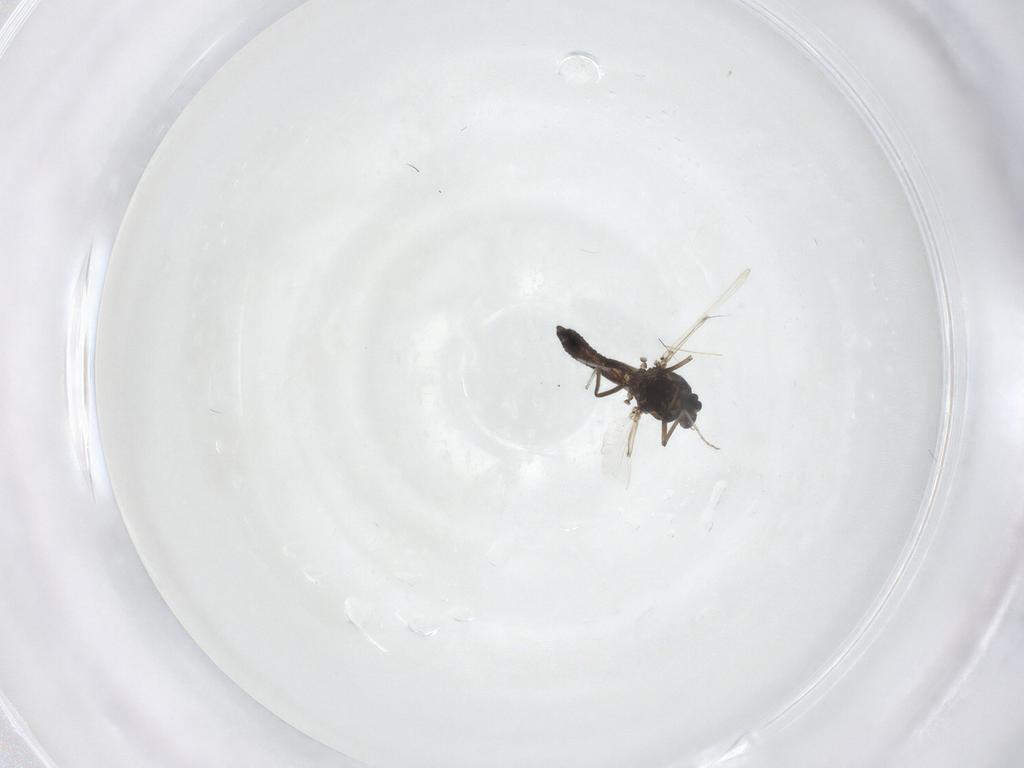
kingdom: Animalia
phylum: Arthropoda
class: Insecta
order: Diptera
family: Ceratopogonidae
